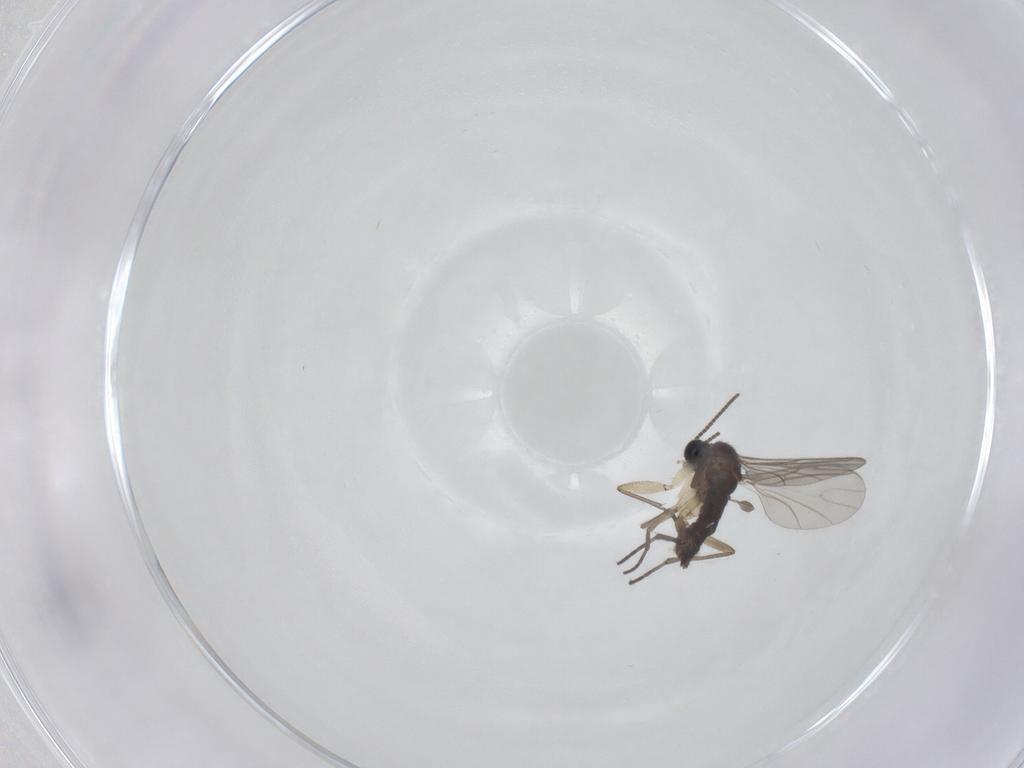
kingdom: Animalia
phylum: Arthropoda
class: Insecta
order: Diptera
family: Sciaridae
